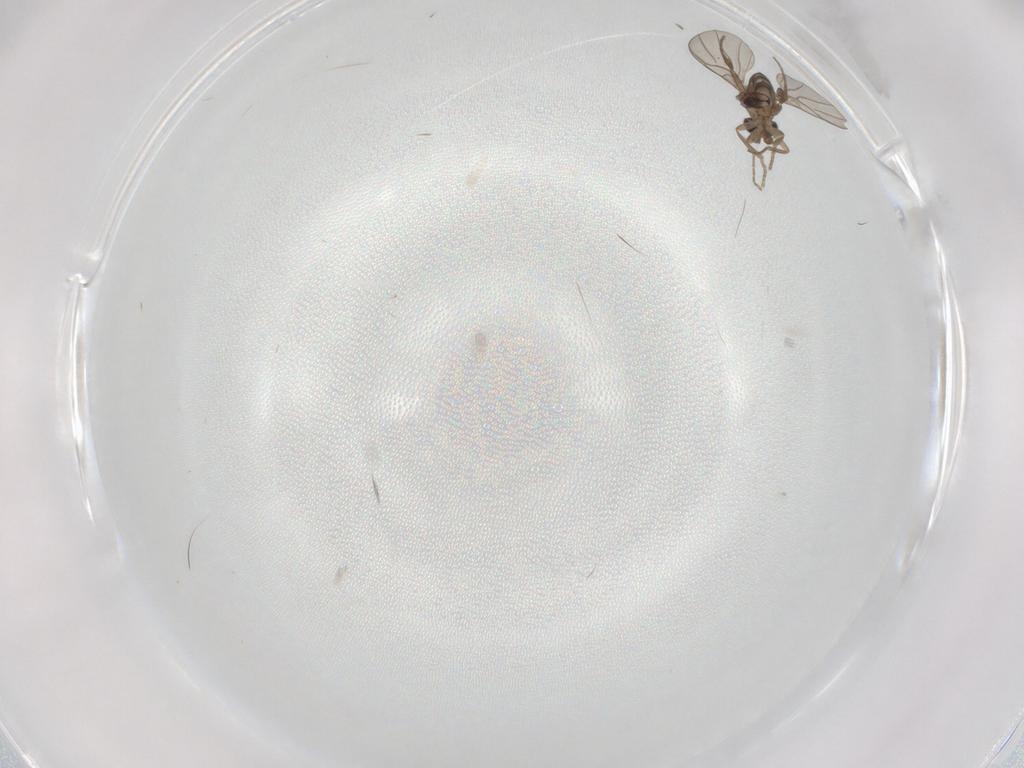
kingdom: Animalia
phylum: Arthropoda
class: Insecta
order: Diptera
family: Phoridae
